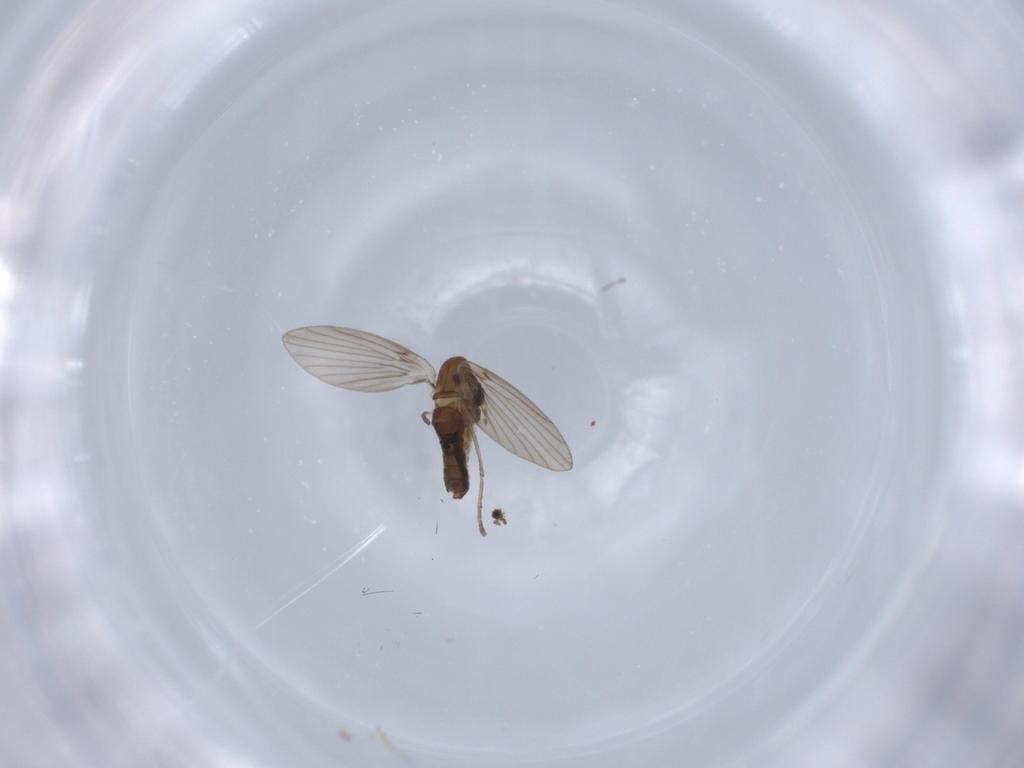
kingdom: Animalia
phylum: Arthropoda
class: Insecta
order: Diptera
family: Psychodidae
